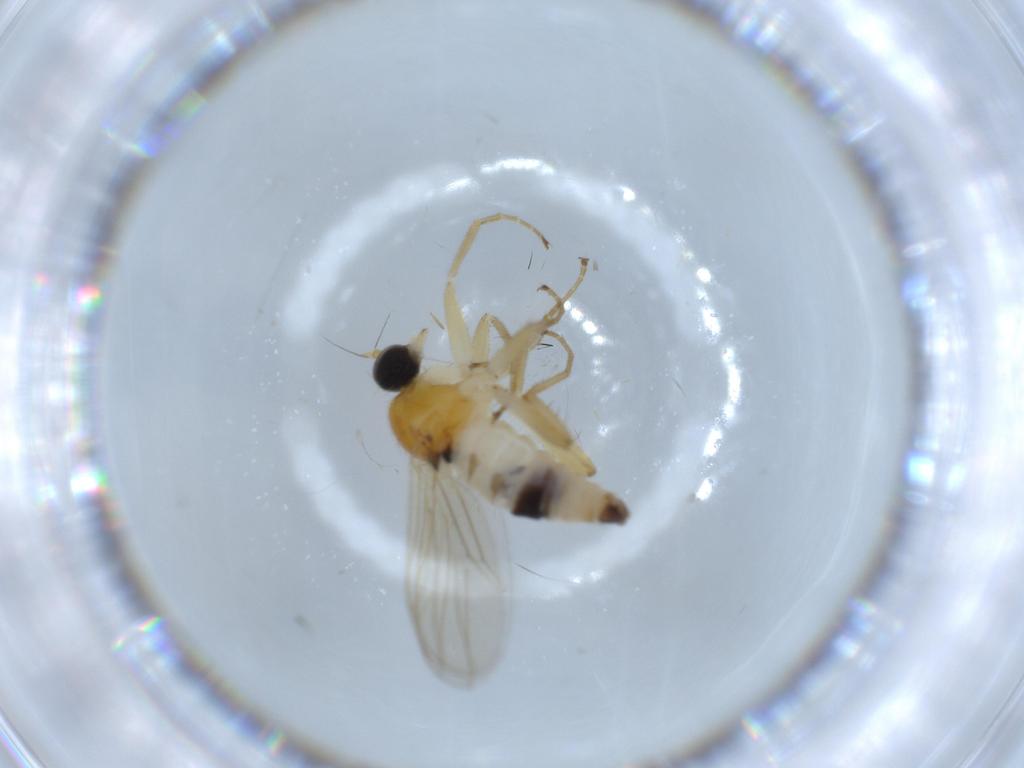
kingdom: Animalia
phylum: Arthropoda
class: Insecta
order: Diptera
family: Hybotidae
